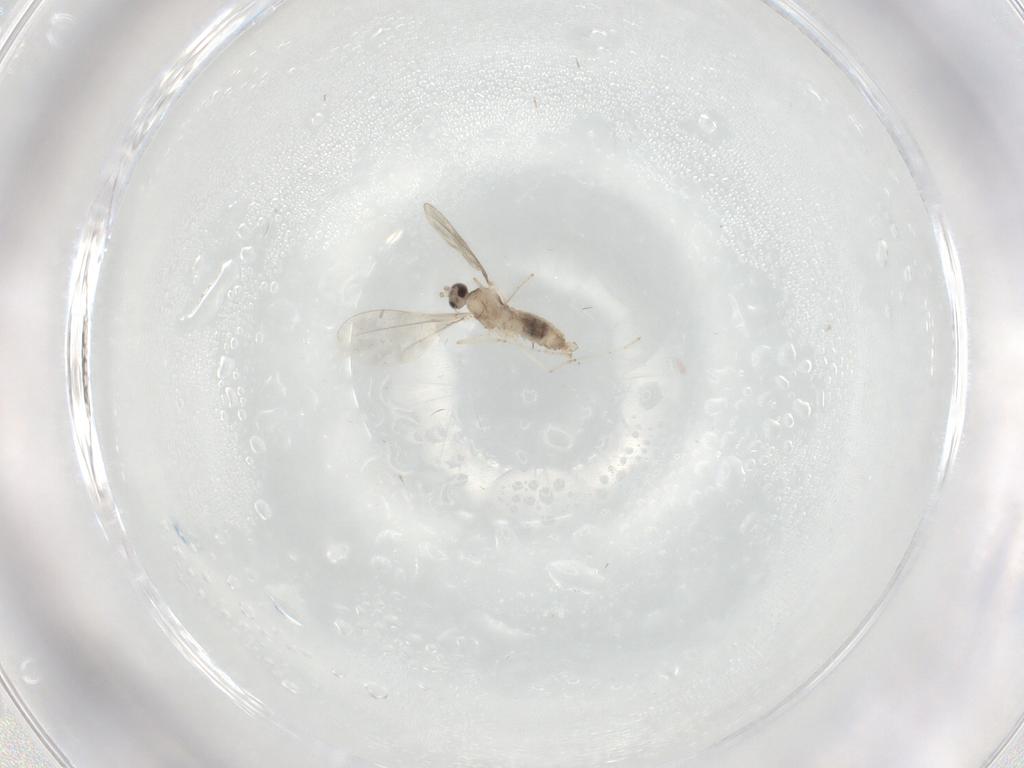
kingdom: Animalia
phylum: Arthropoda
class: Insecta
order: Diptera
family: Cecidomyiidae
